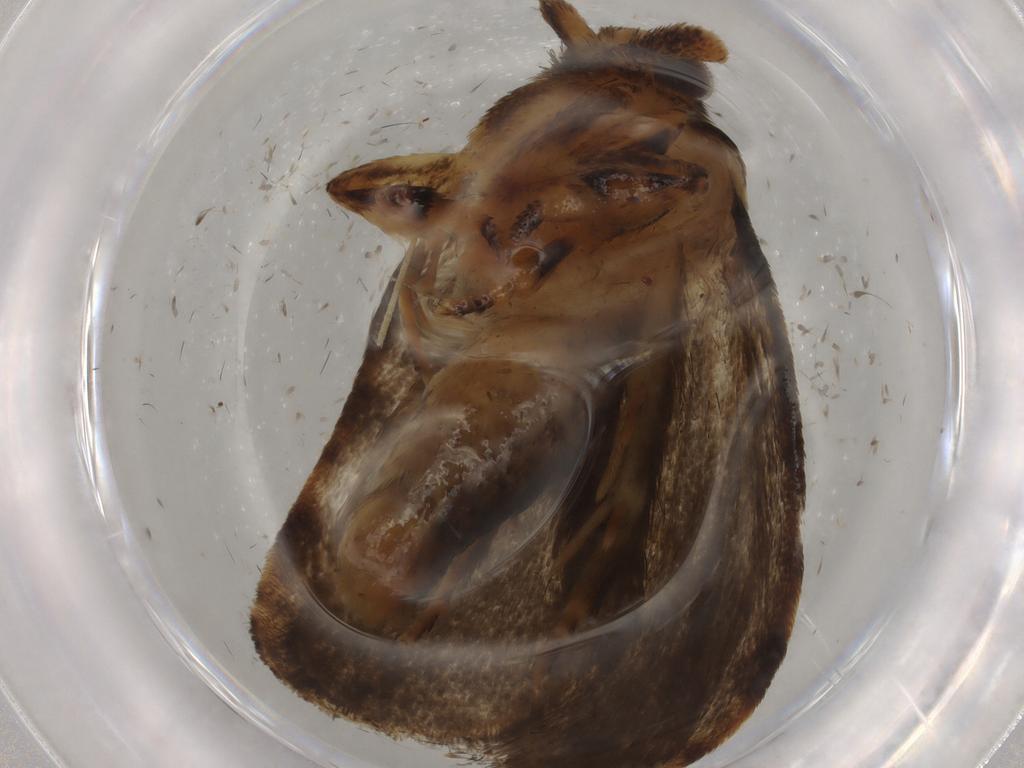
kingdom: Animalia
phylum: Arthropoda
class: Insecta
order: Lepidoptera
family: Tineidae
